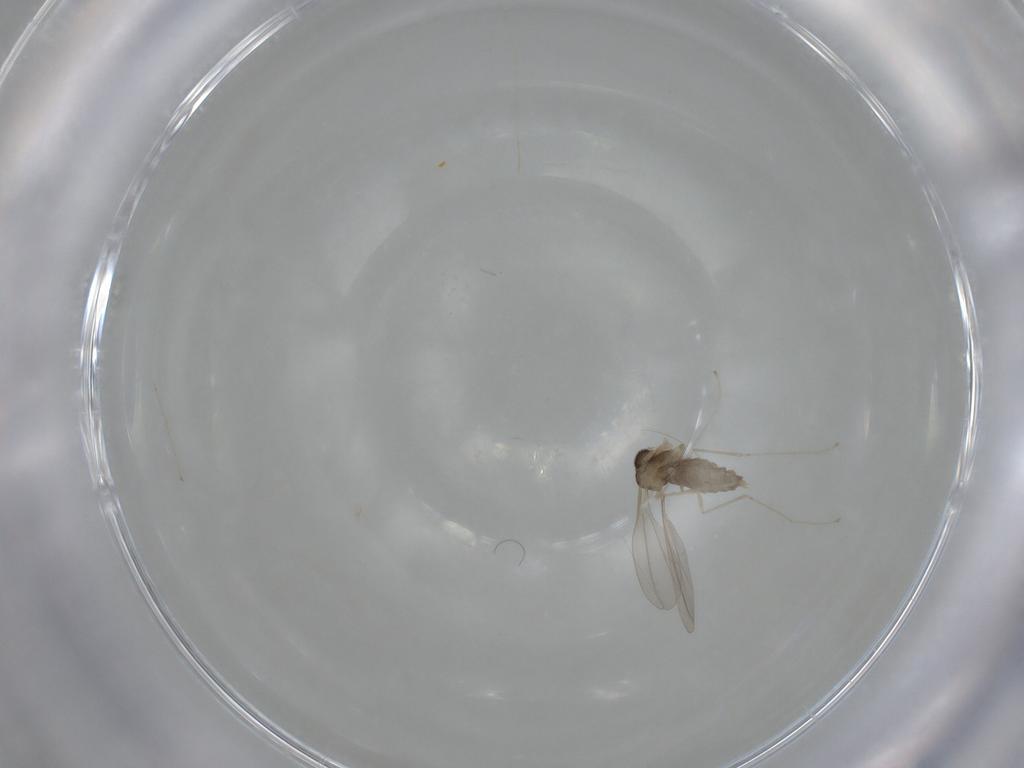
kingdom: Animalia
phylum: Arthropoda
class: Insecta
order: Diptera
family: Cecidomyiidae
